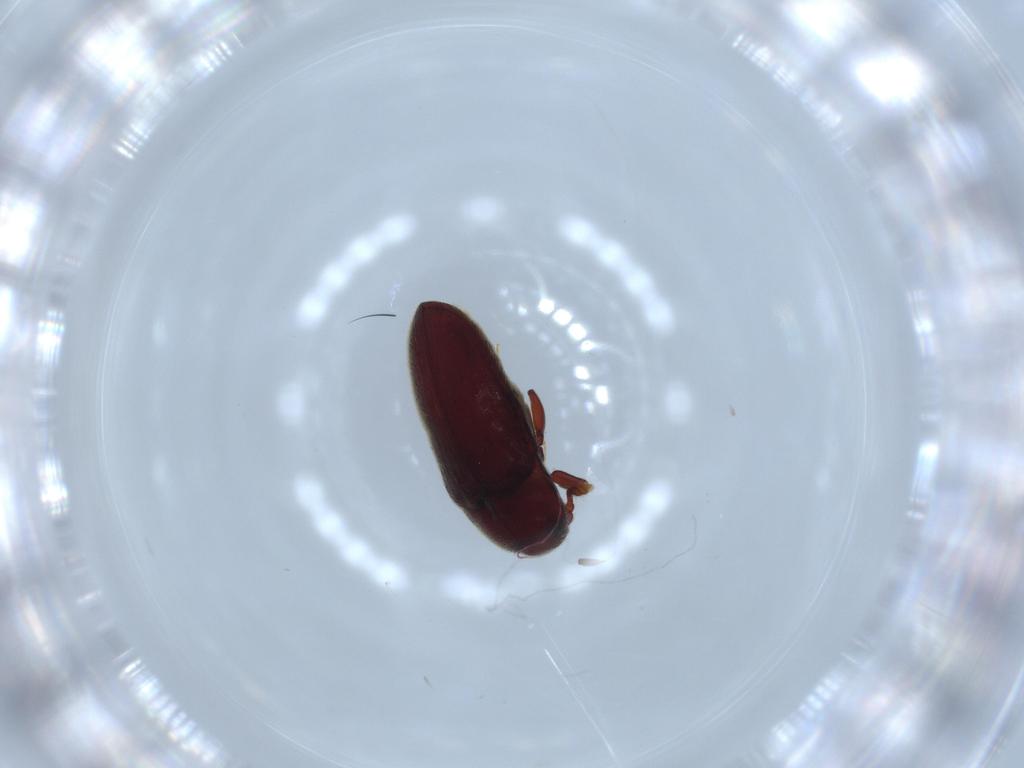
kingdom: Animalia
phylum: Arthropoda
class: Insecta
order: Coleoptera
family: Throscidae
